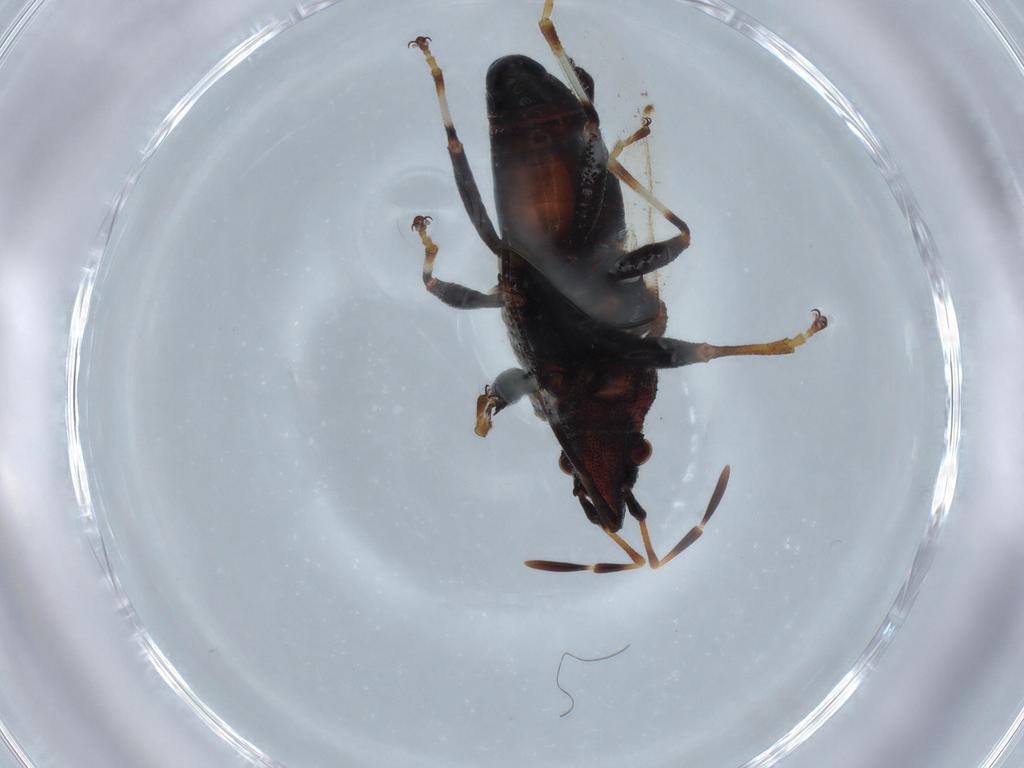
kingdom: Animalia
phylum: Arthropoda
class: Insecta
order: Hemiptera
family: Oxycarenidae
